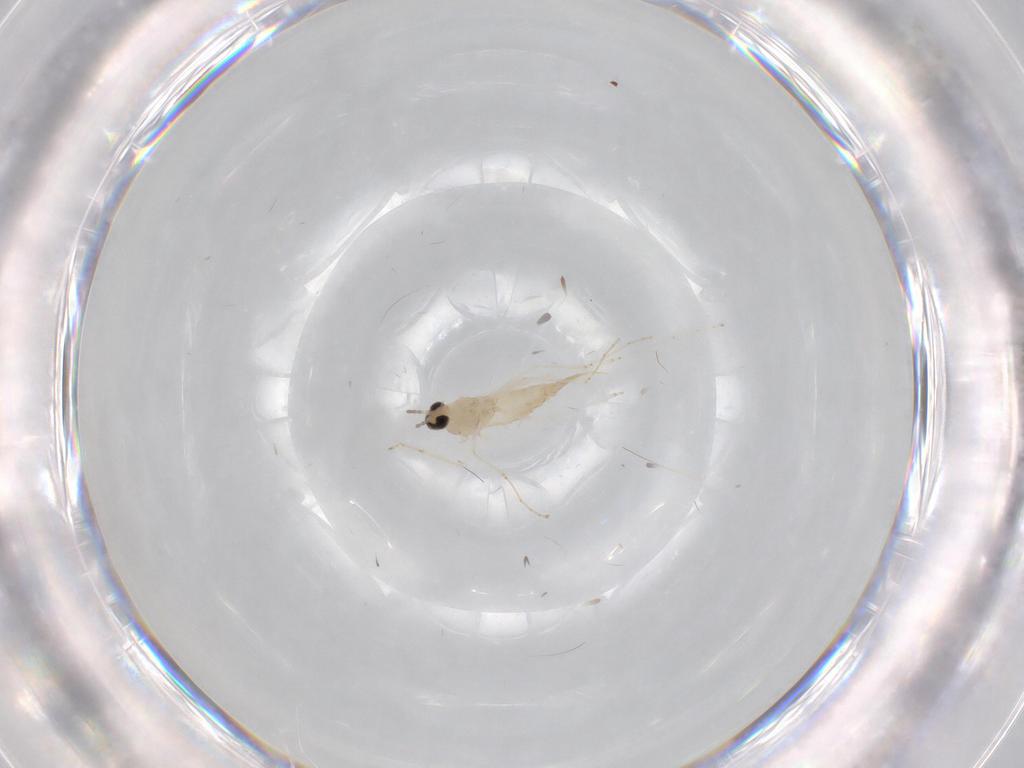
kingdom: Animalia
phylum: Arthropoda
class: Insecta
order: Diptera
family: Cecidomyiidae
